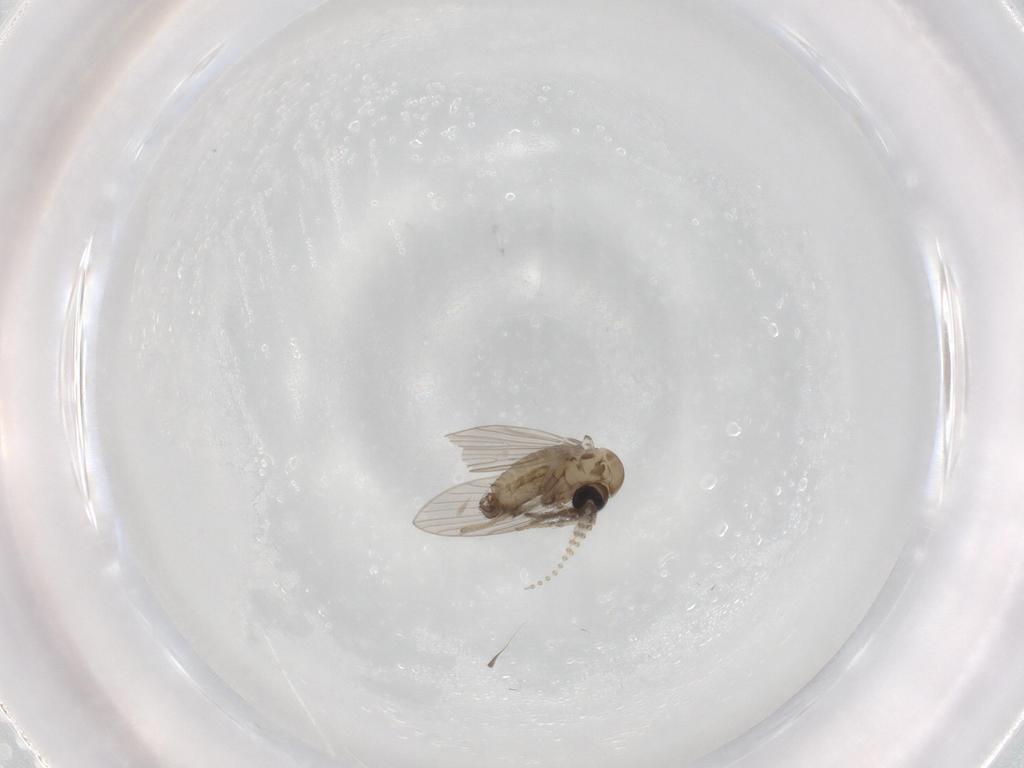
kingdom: Animalia
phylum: Arthropoda
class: Insecta
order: Diptera
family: Psychodidae
